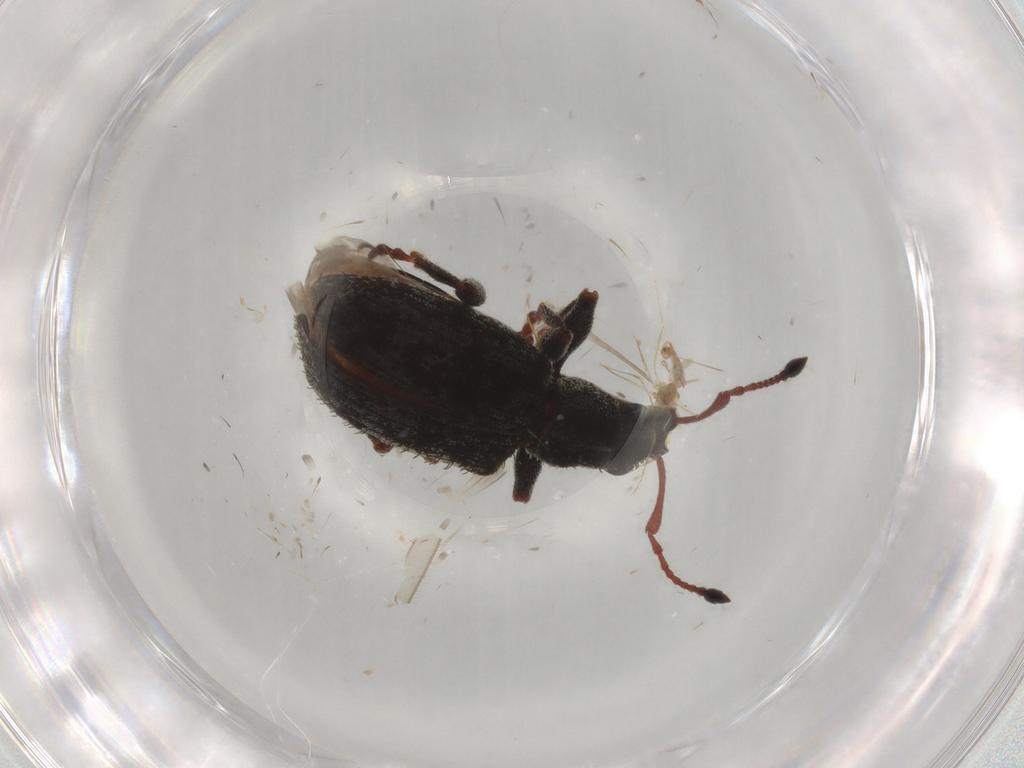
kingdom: Animalia
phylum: Arthropoda
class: Insecta
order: Coleoptera
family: Curculionidae
